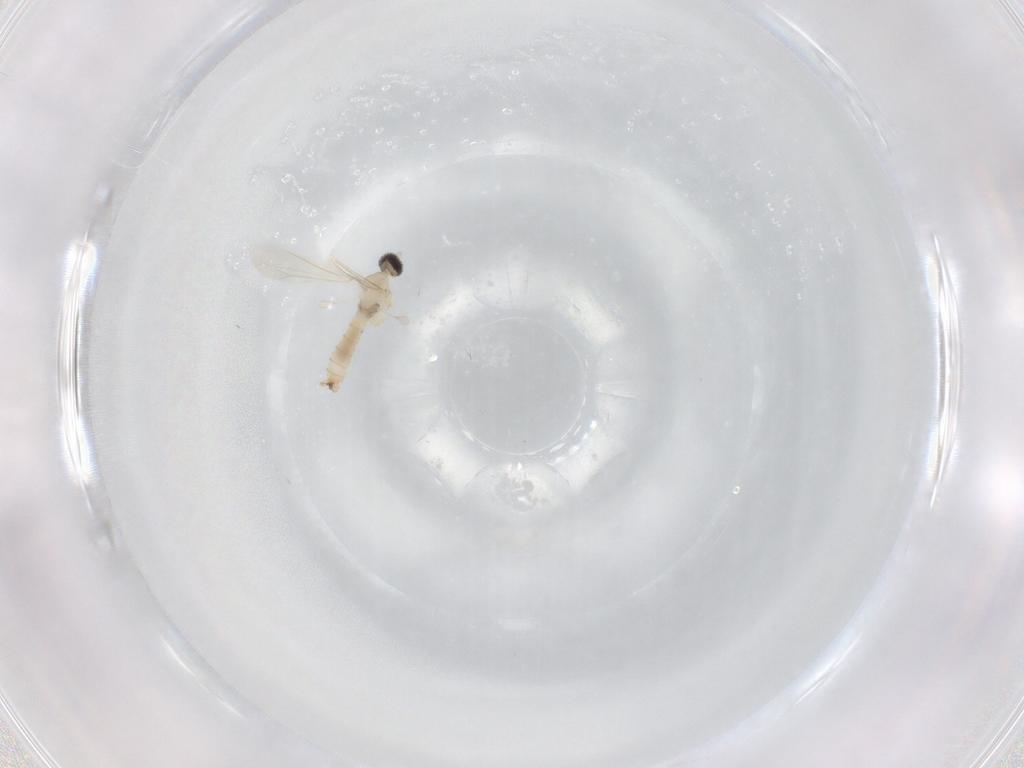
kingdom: Animalia
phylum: Arthropoda
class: Insecta
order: Diptera
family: Cecidomyiidae
